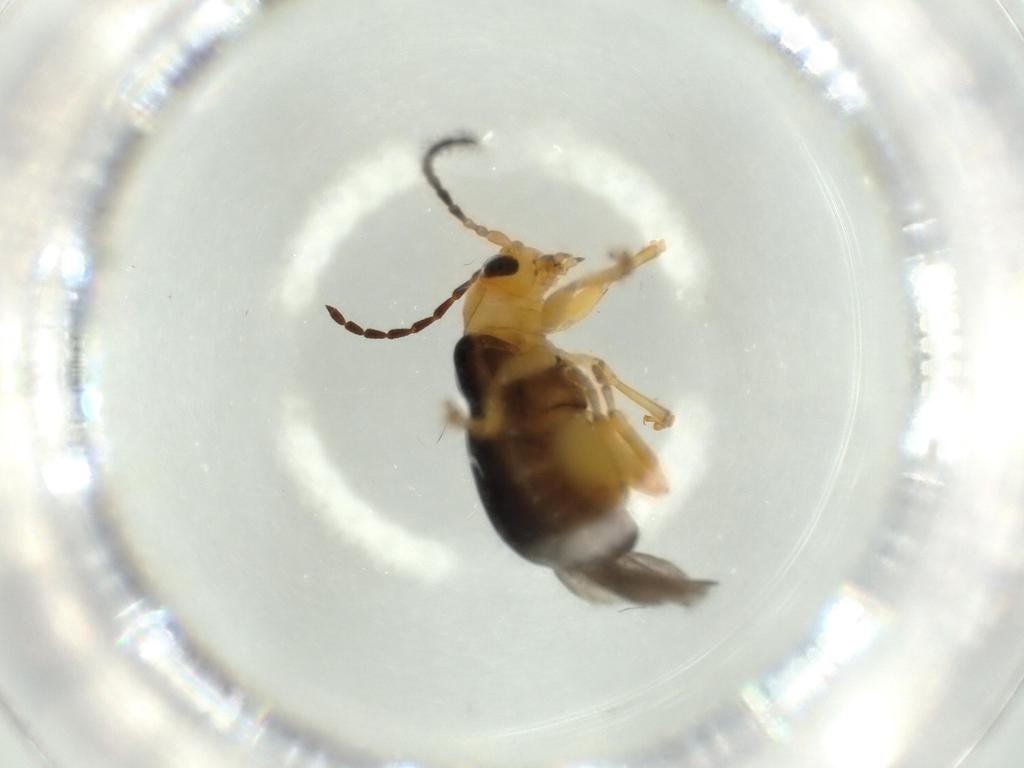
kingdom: Animalia
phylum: Arthropoda
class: Insecta
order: Coleoptera
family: Chrysomelidae
